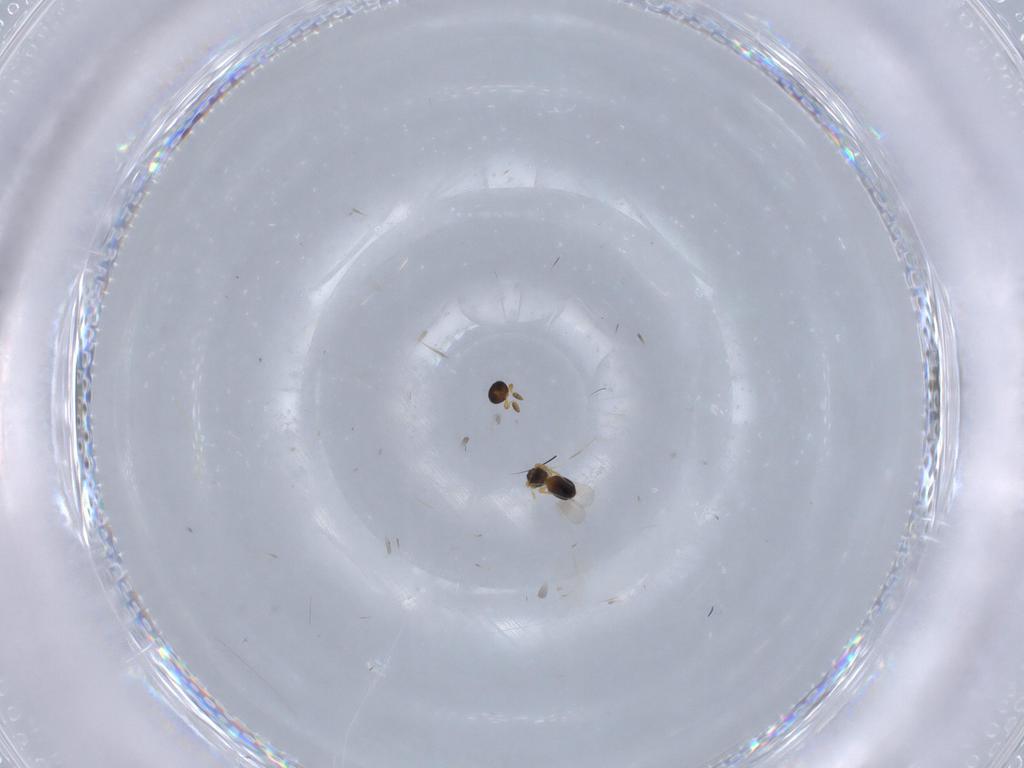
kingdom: Animalia
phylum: Arthropoda
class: Insecta
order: Hymenoptera
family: Platygastridae
